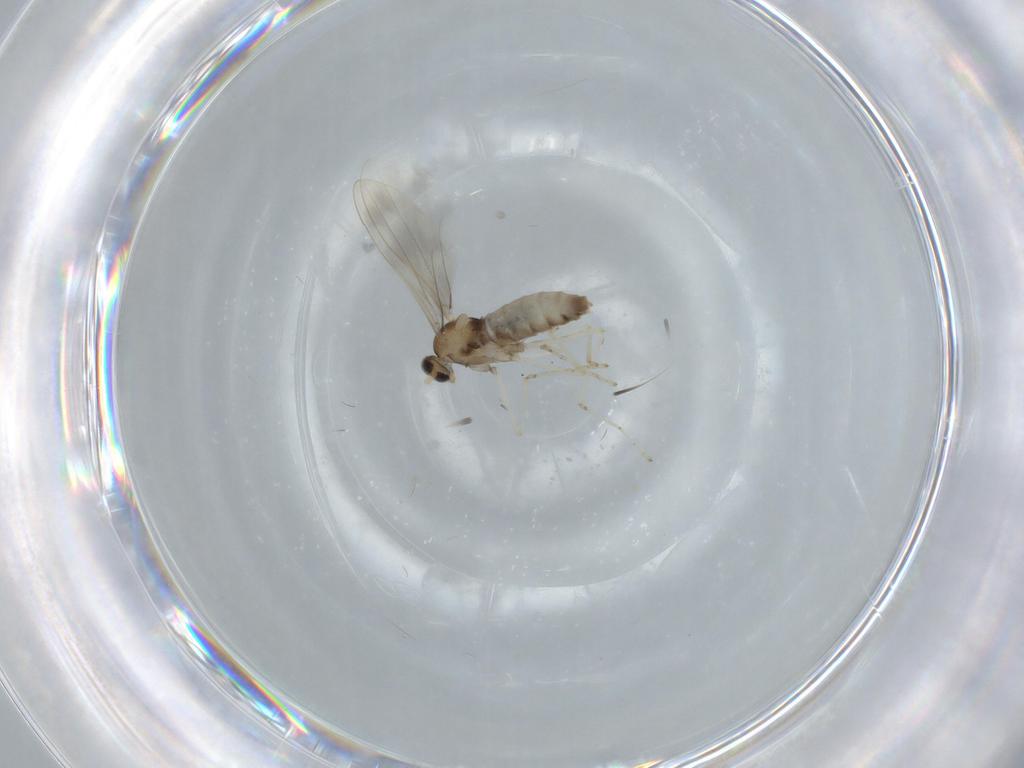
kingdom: Animalia
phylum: Arthropoda
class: Insecta
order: Diptera
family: Cecidomyiidae
